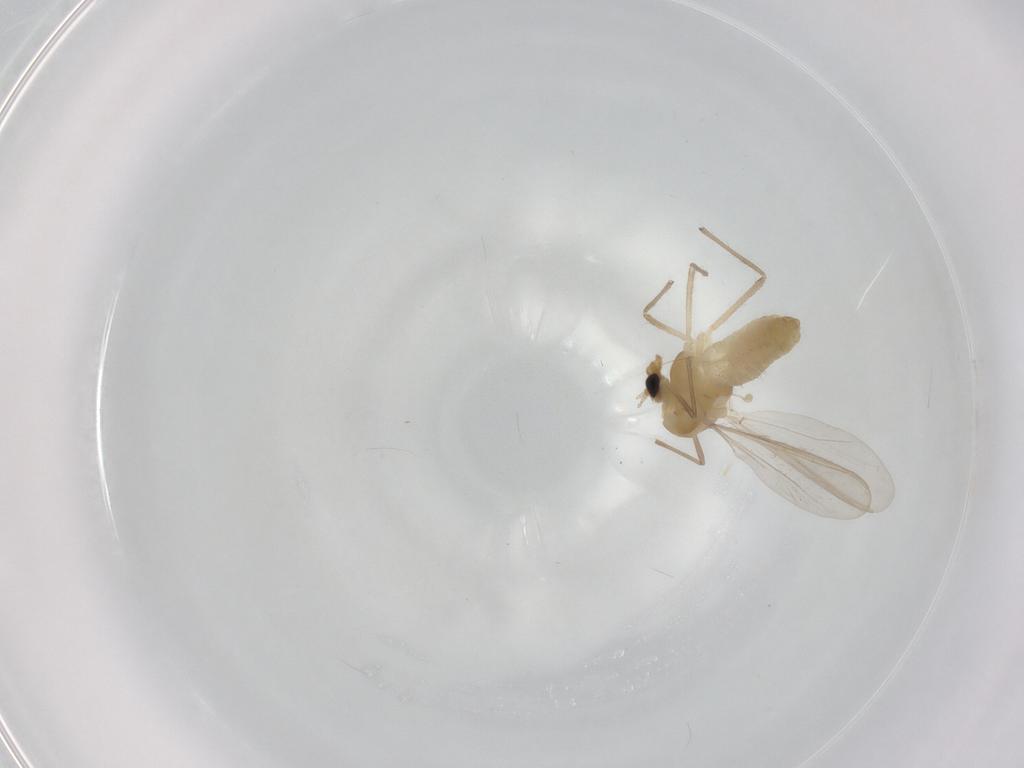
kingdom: Animalia
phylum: Arthropoda
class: Insecta
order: Diptera
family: Chironomidae
